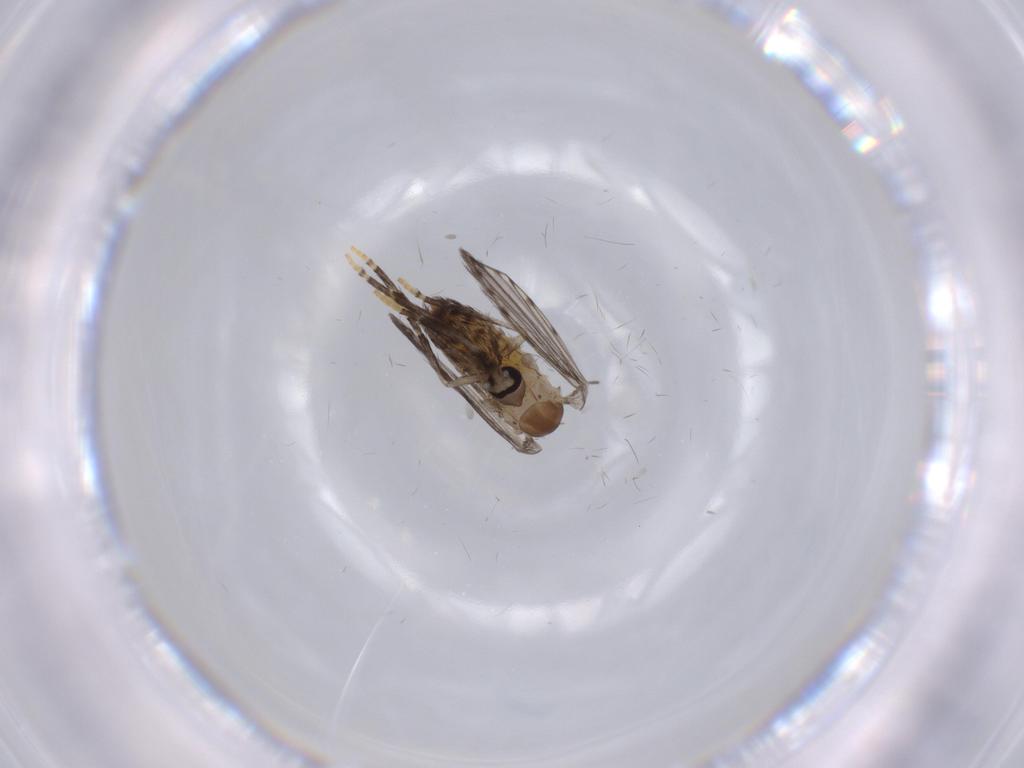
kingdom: Animalia
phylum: Arthropoda
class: Insecta
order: Diptera
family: Psychodidae
